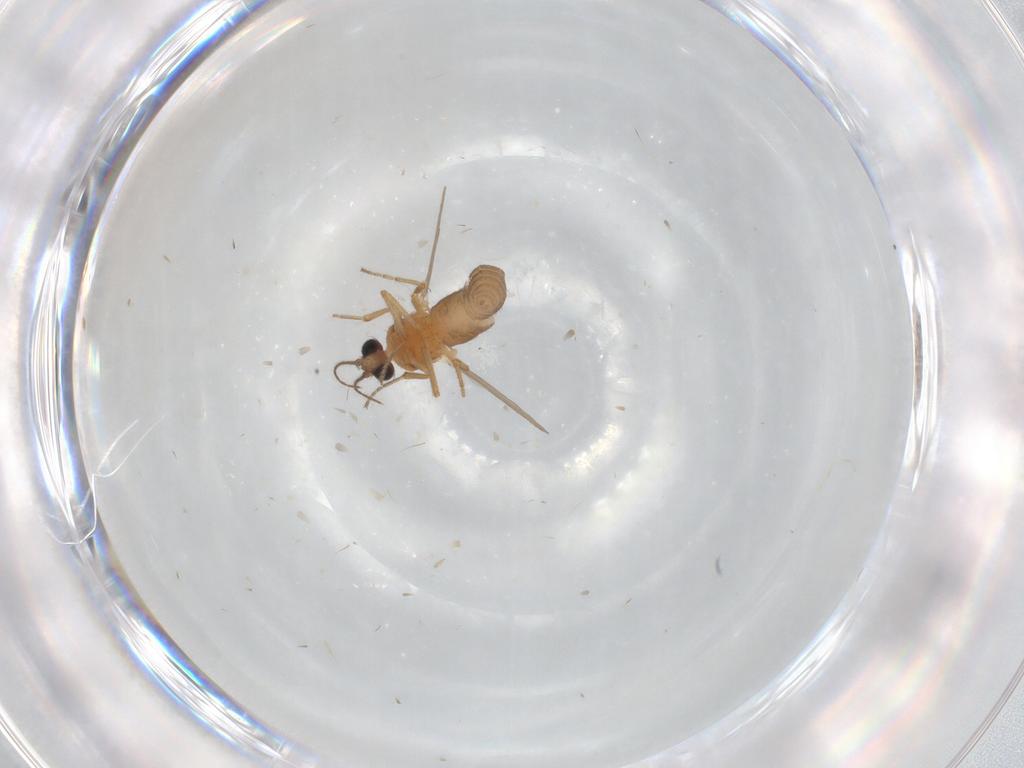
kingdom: Animalia
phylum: Arthropoda
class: Insecta
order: Diptera
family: Ceratopogonidae
